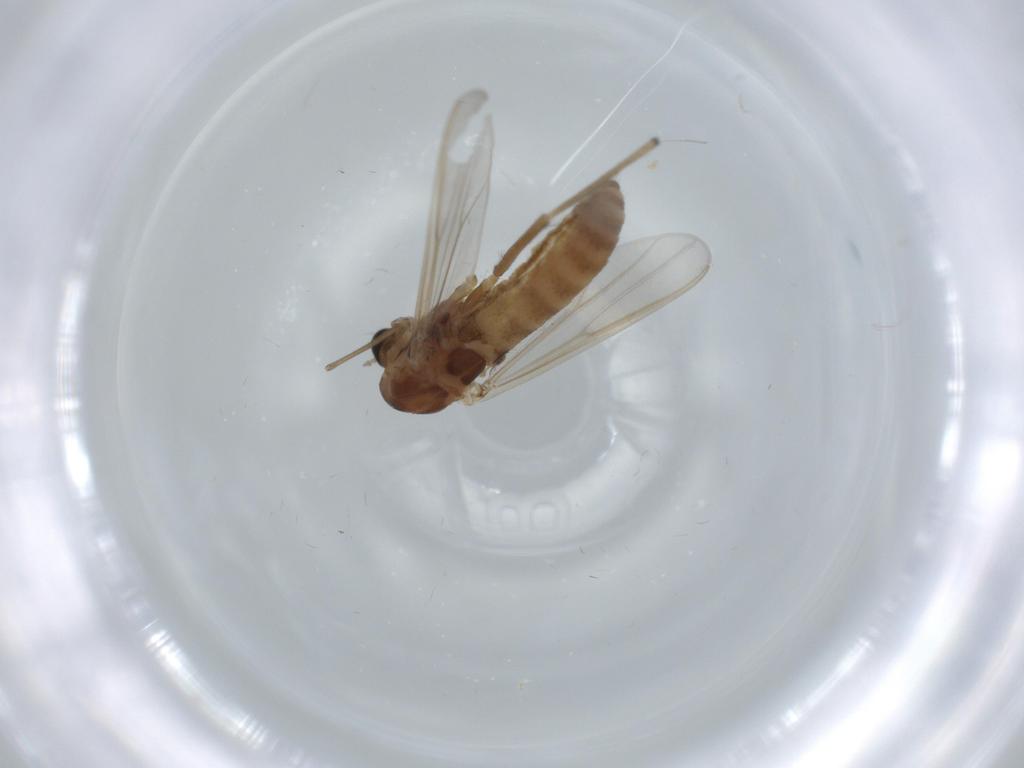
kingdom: Animalia
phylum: Arthropoda
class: Insecta
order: Diptera
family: Chironomidae
